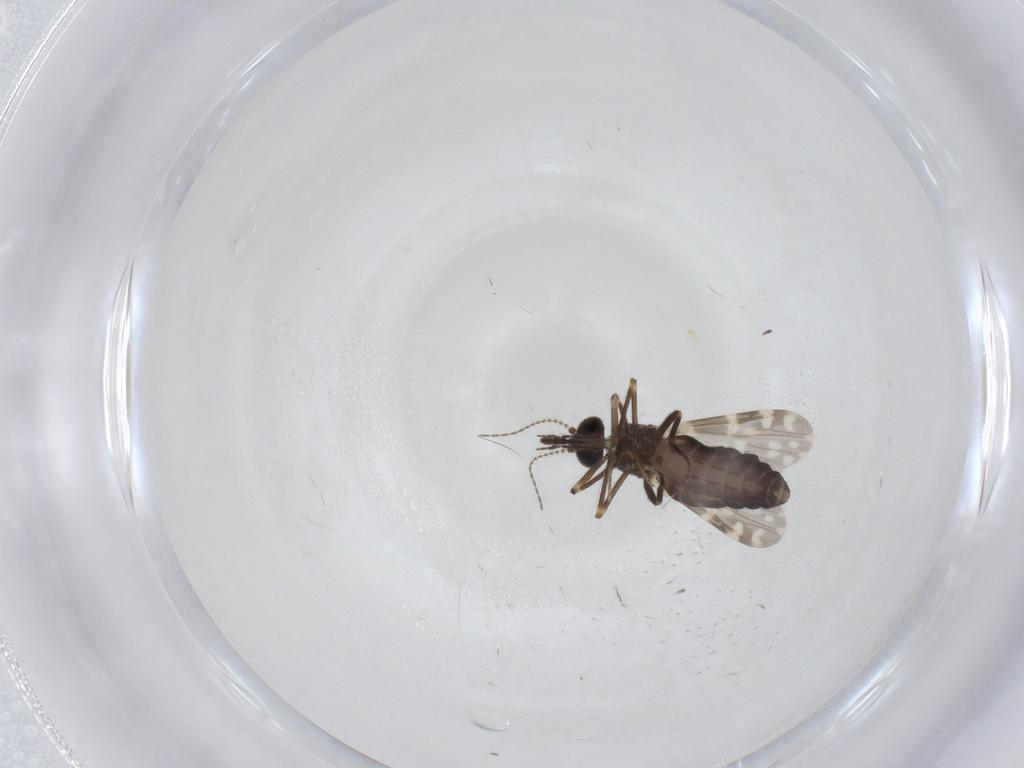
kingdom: Animalia
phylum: Arthropoda
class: Insecta
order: Diptera
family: Ceratopogonidae
